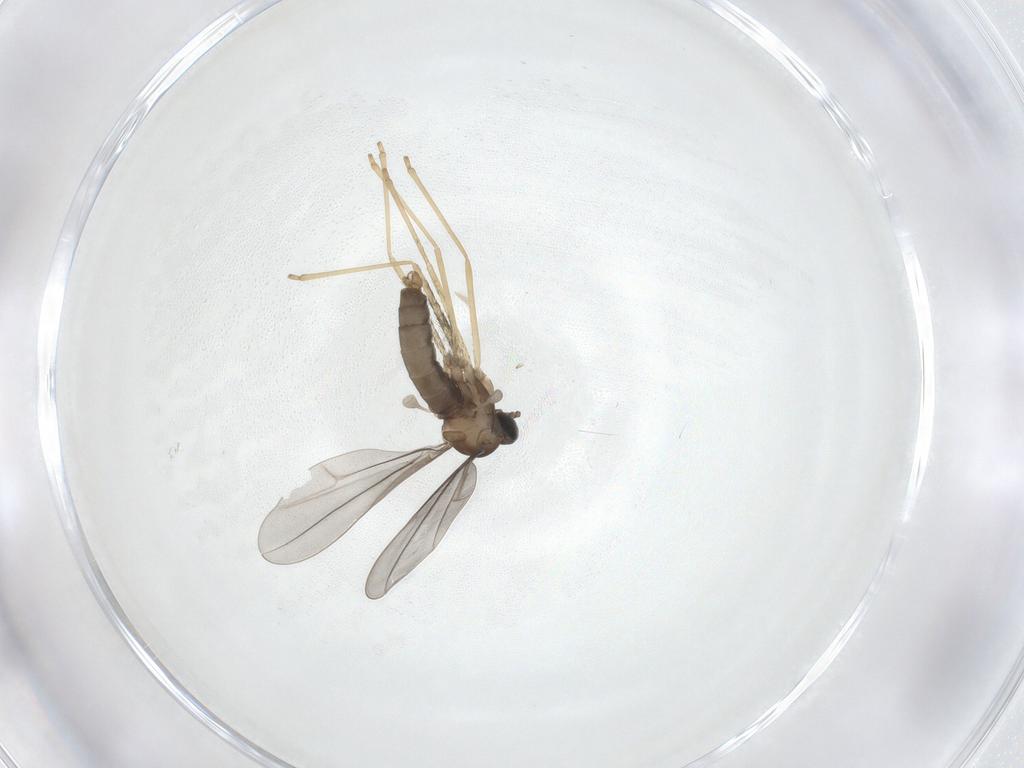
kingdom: Animalia
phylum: Arthropoda
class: Insecta
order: Diptera
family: Cecidomyiidae
